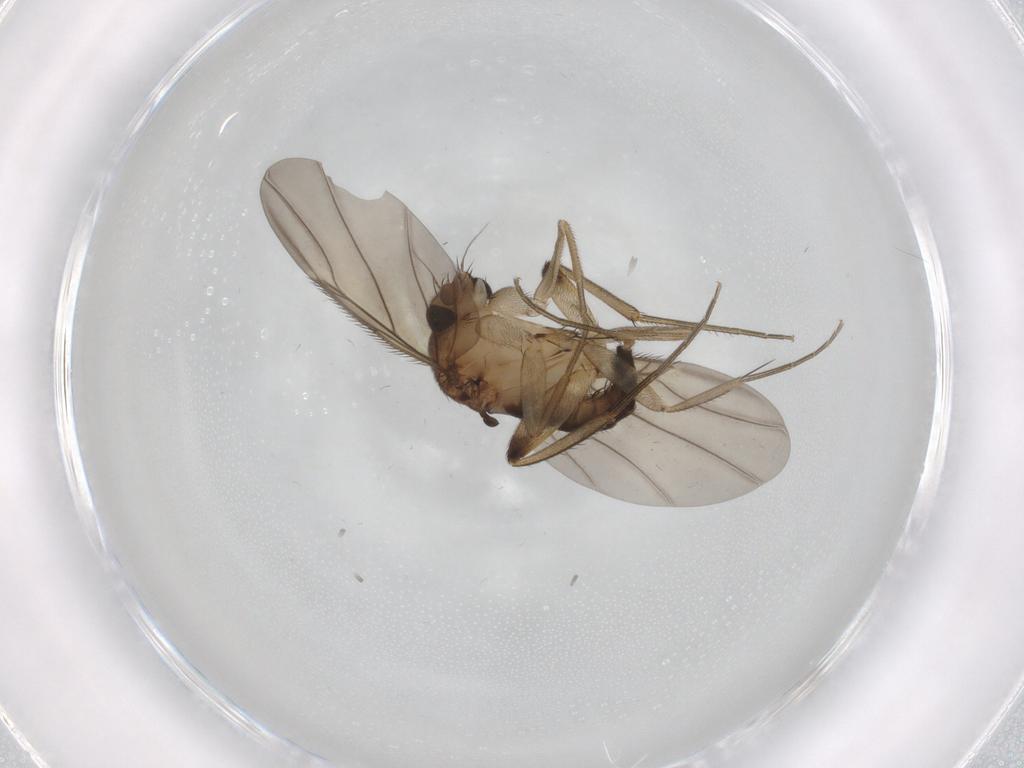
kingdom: Animalia
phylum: Arthropoda
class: Insecta
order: Diptera
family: Phoridae
